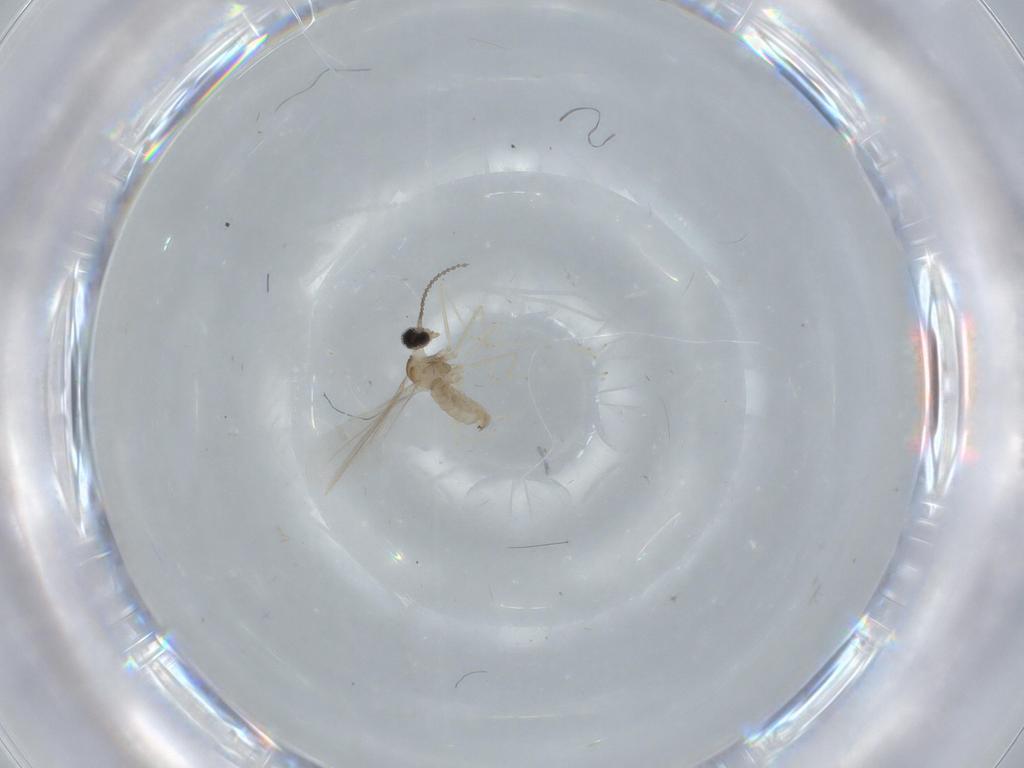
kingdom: Animalia
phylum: Arthropoda
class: Insecta
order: Diptera
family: Cecidomyiidae
